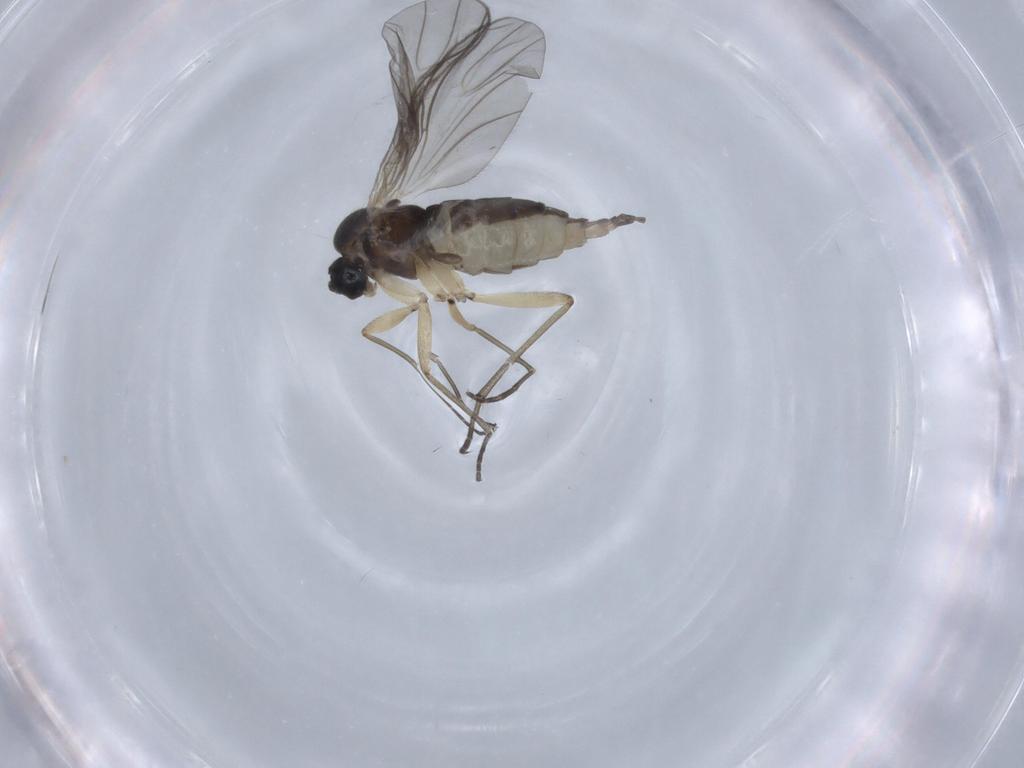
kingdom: Animalia
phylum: Arthropoda
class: Insecta
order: Diptera
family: Sciaridae
